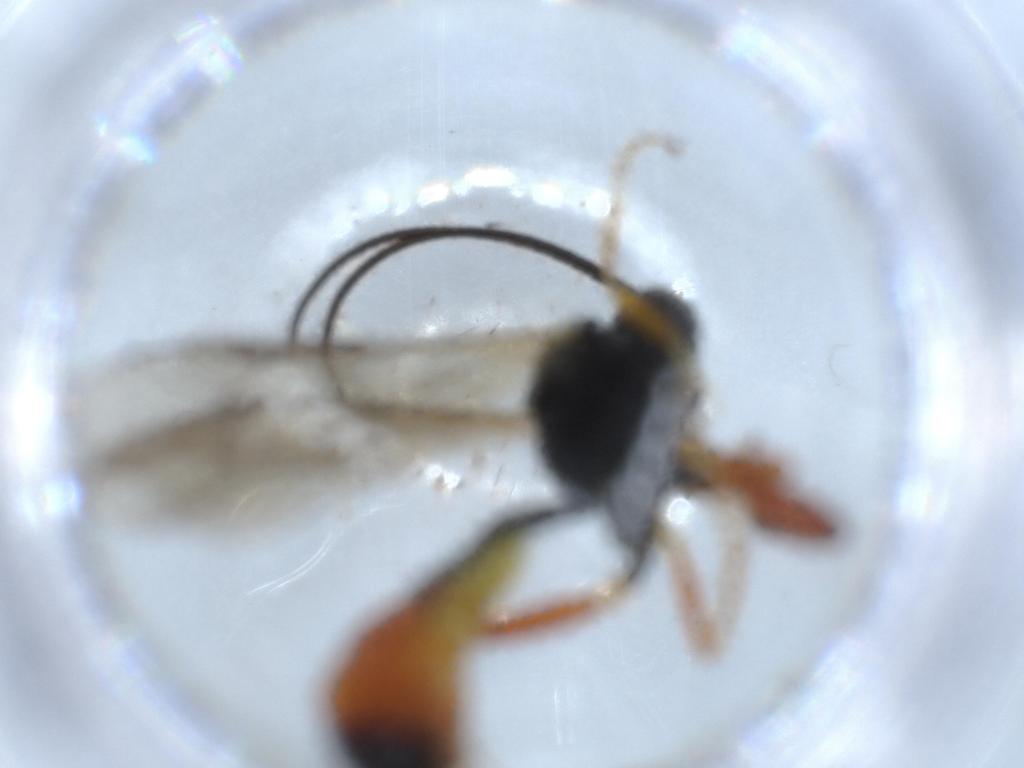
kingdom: Animalia
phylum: Arthropoda
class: Insecta
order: Hymenoptera
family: Ichneumonidae
